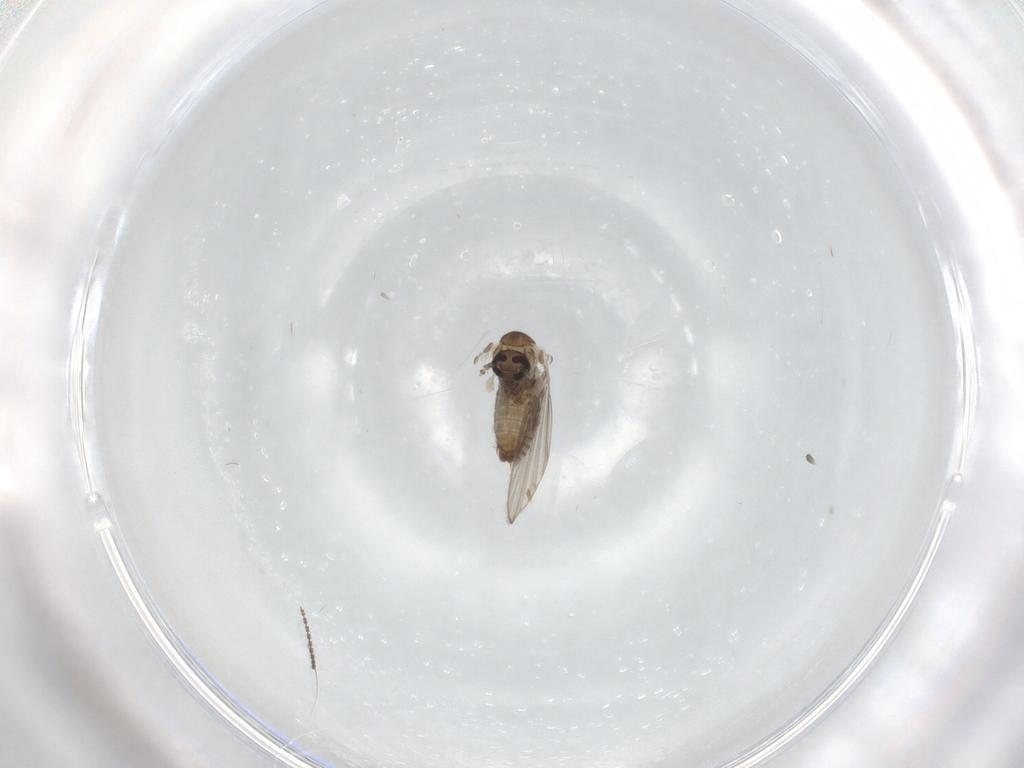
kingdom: Animalia
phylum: Arthropoda
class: Insecta
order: Diptera
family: Psychodidae
